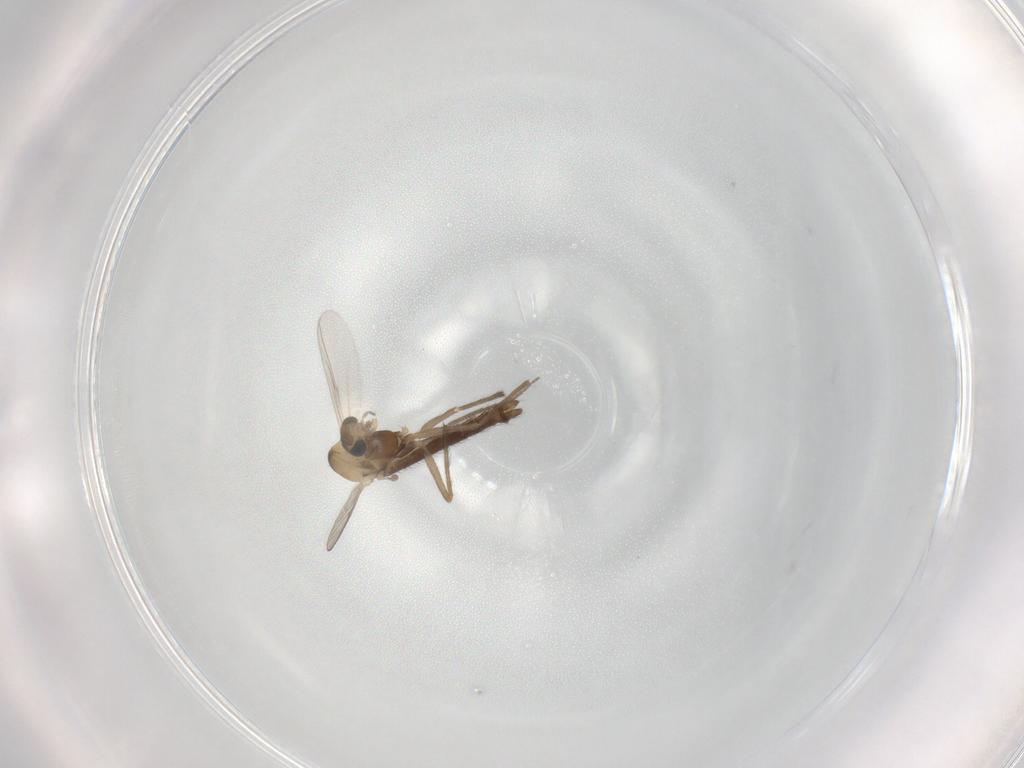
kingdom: Animalia
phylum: Arthropoda
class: Insecta
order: Diptera
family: Chironomidae
